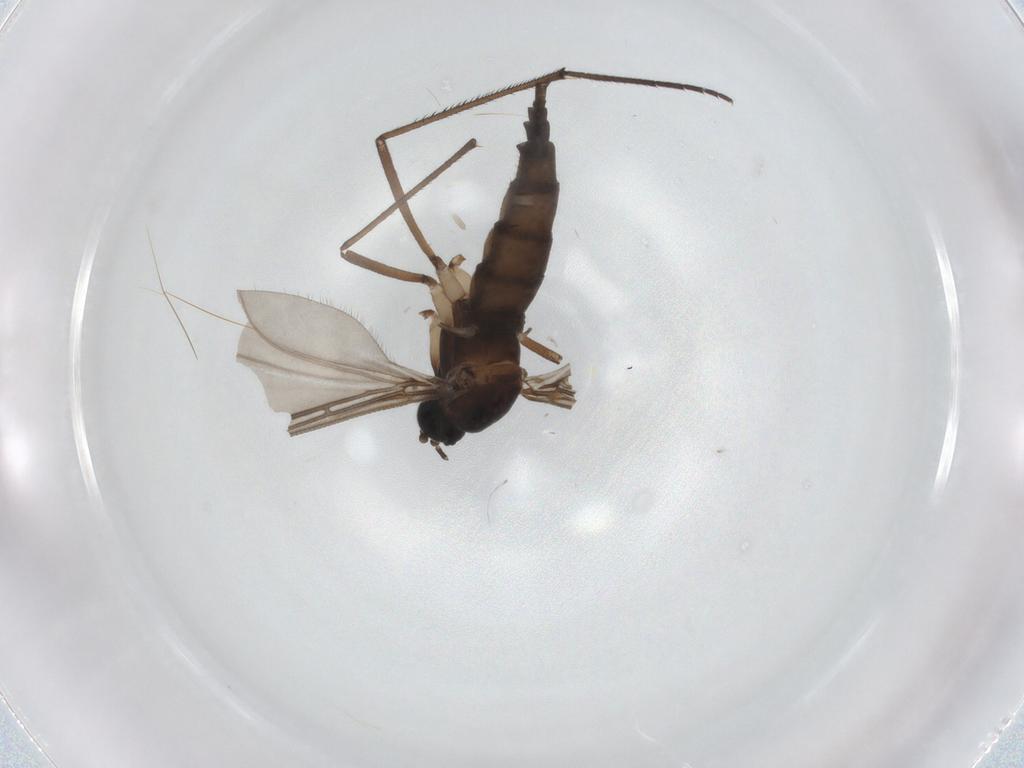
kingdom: Animalia
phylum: Arthropoda
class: Insecta
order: Diptera
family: Sciaridae
